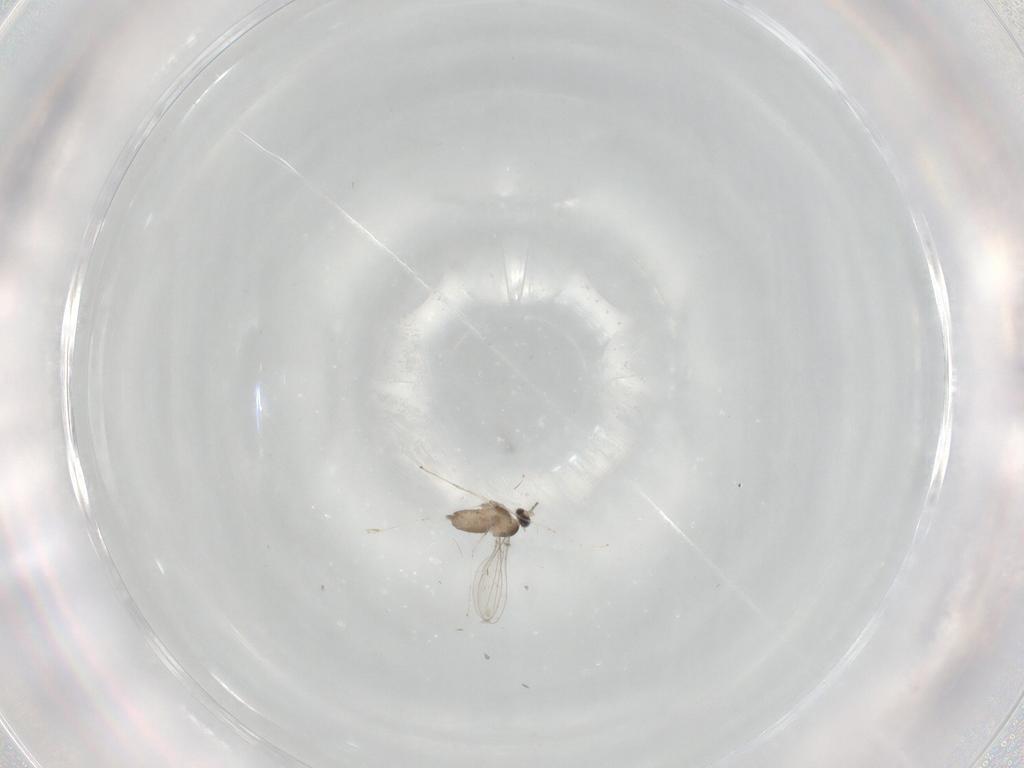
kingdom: Animalia
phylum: Arthropoda
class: Insecta
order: Diptera
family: Cecidomyiidae
